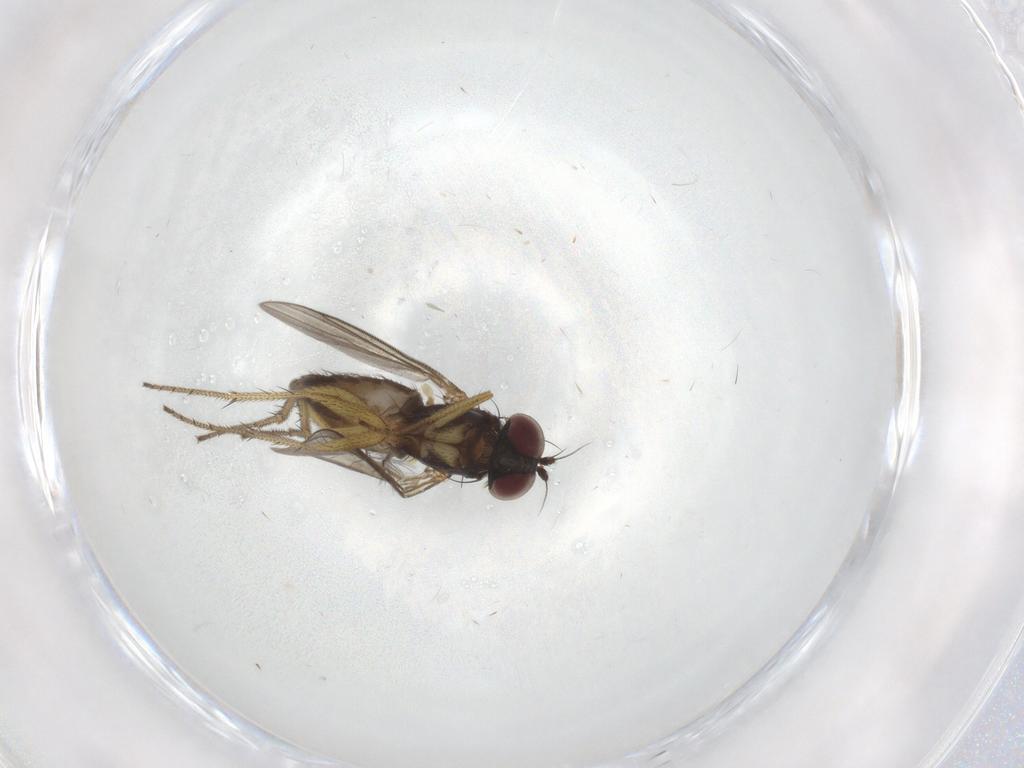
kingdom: Animalia
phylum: Arthropoda
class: Insecta
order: Diptera
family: Dolichopodidae
